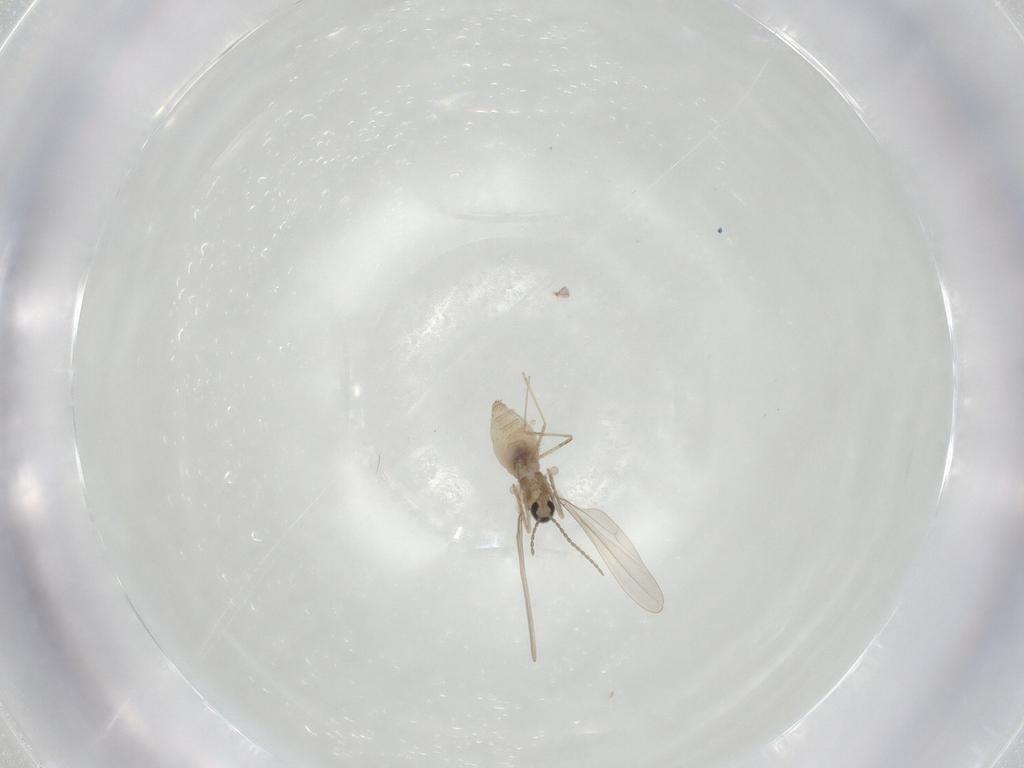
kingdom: Animalia
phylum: Arthropoda
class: Insecta
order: Diptera
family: Cecidomyiidae
